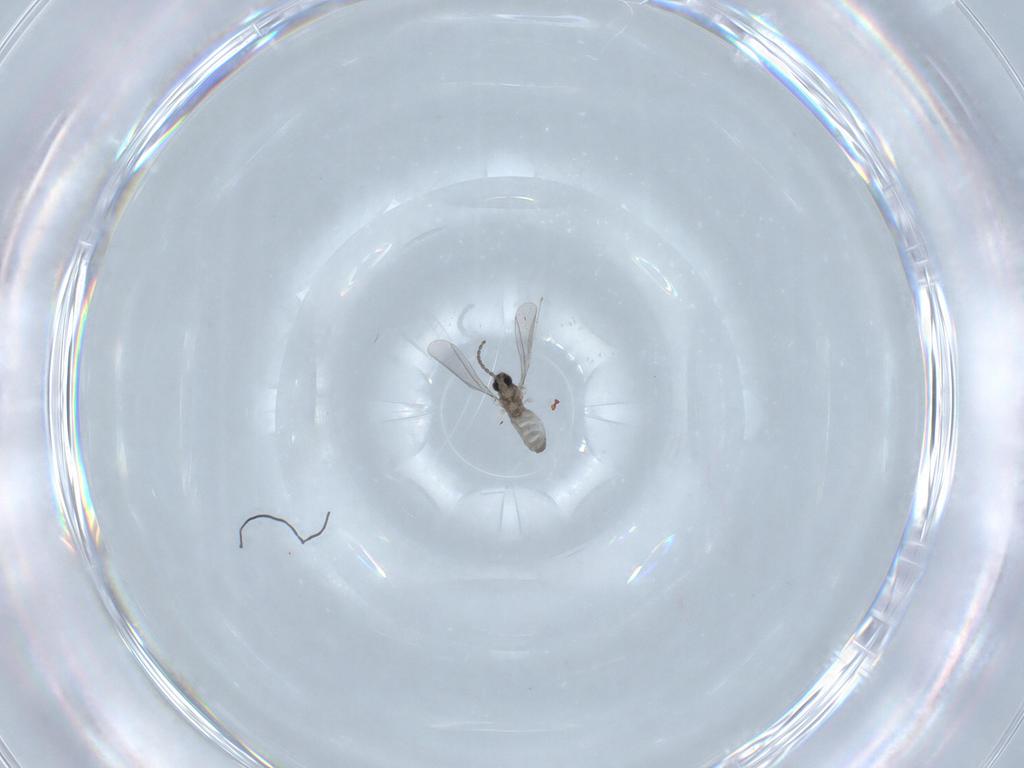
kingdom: Animalia
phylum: Arthropoda
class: Insecta
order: Diptera
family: Cecidomyiidae
